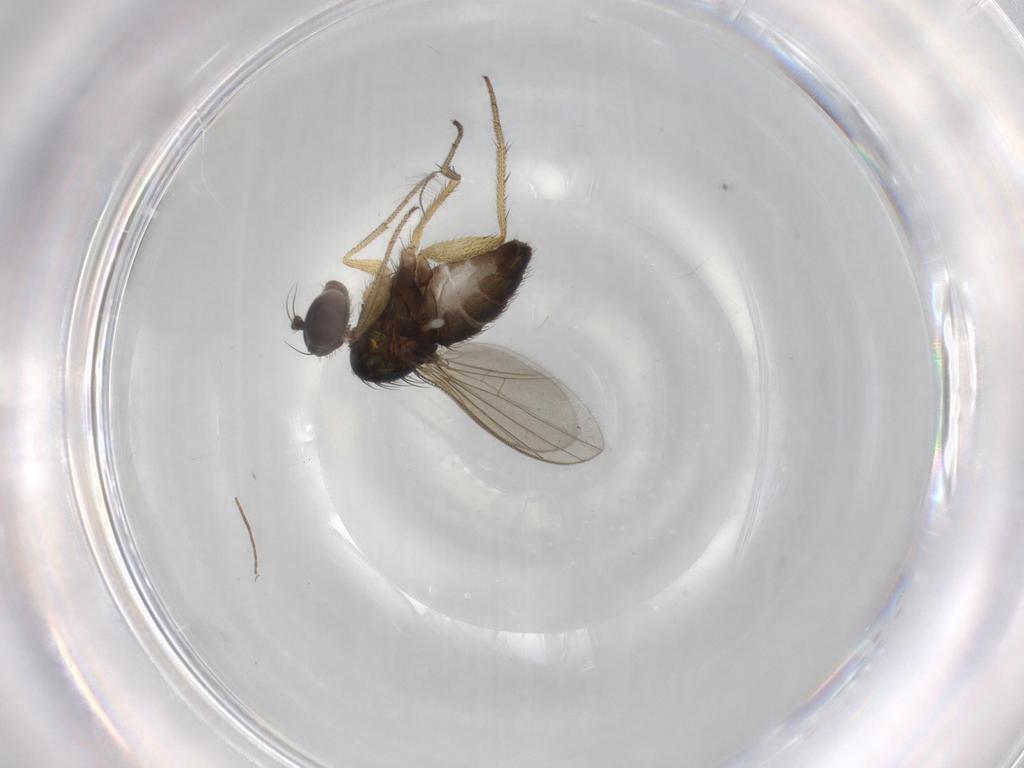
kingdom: Animalia
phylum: Arthropoda
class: Insecta
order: Diptera
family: Dolichopodidae
